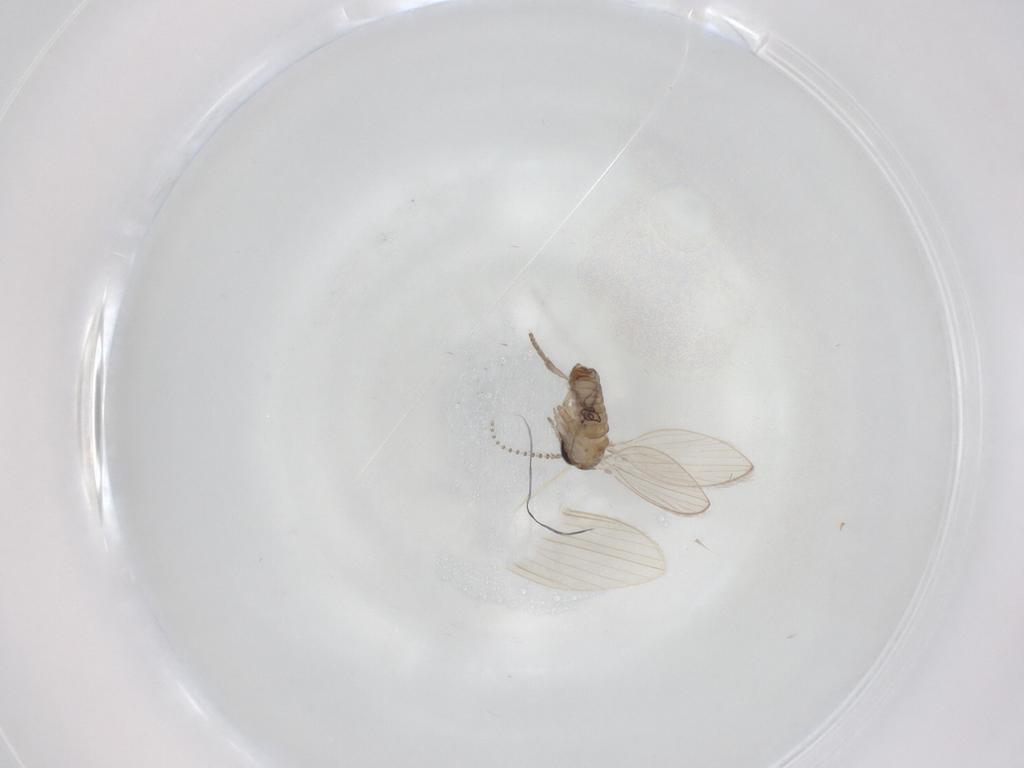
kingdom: Animalia
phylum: Arthropoda
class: Insecta
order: Diptera
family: Psychodidae
